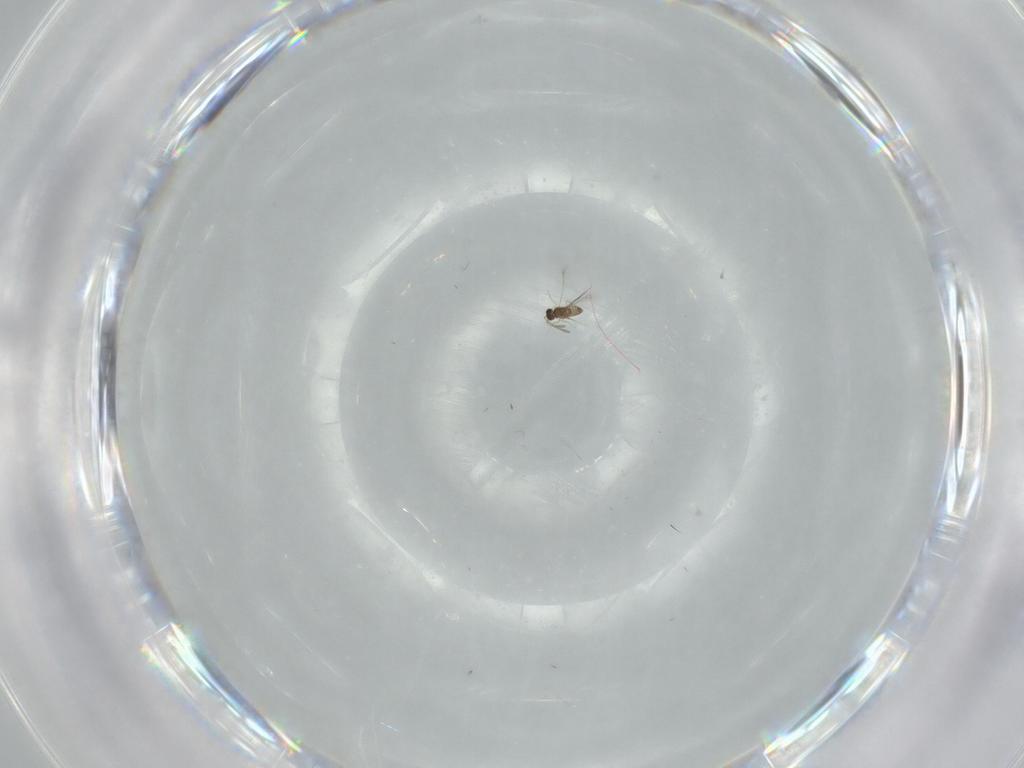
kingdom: Animalia
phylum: Arthropoda
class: Insecta
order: Hymenoptera
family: Mymaridae
